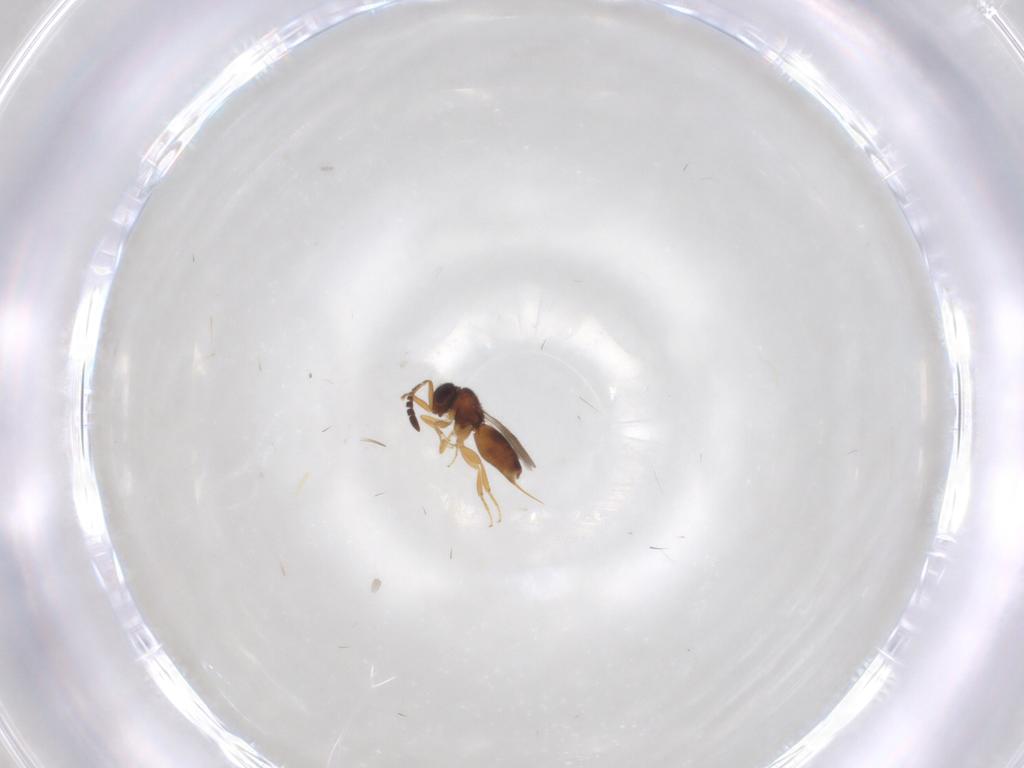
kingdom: Animalia
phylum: Arthropoda
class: Insecta
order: Hymenoptera
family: Ceraphronidae
